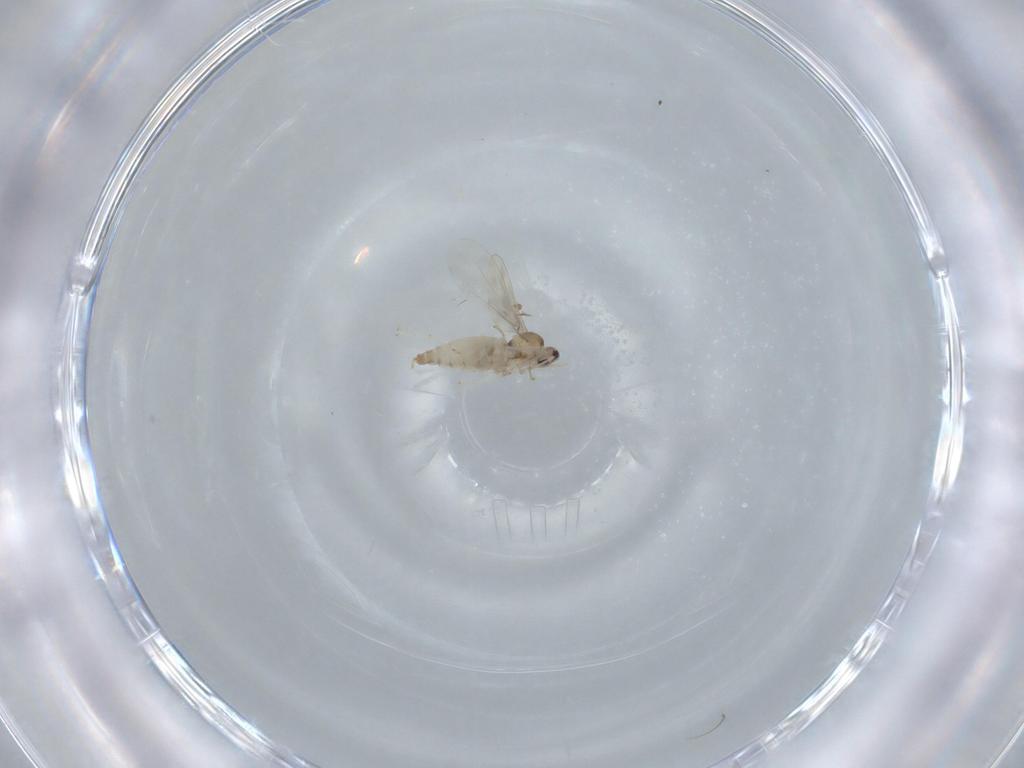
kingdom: Animalia
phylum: Arthropoda
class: Insecta
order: Diptera
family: Cecidomyiidae
